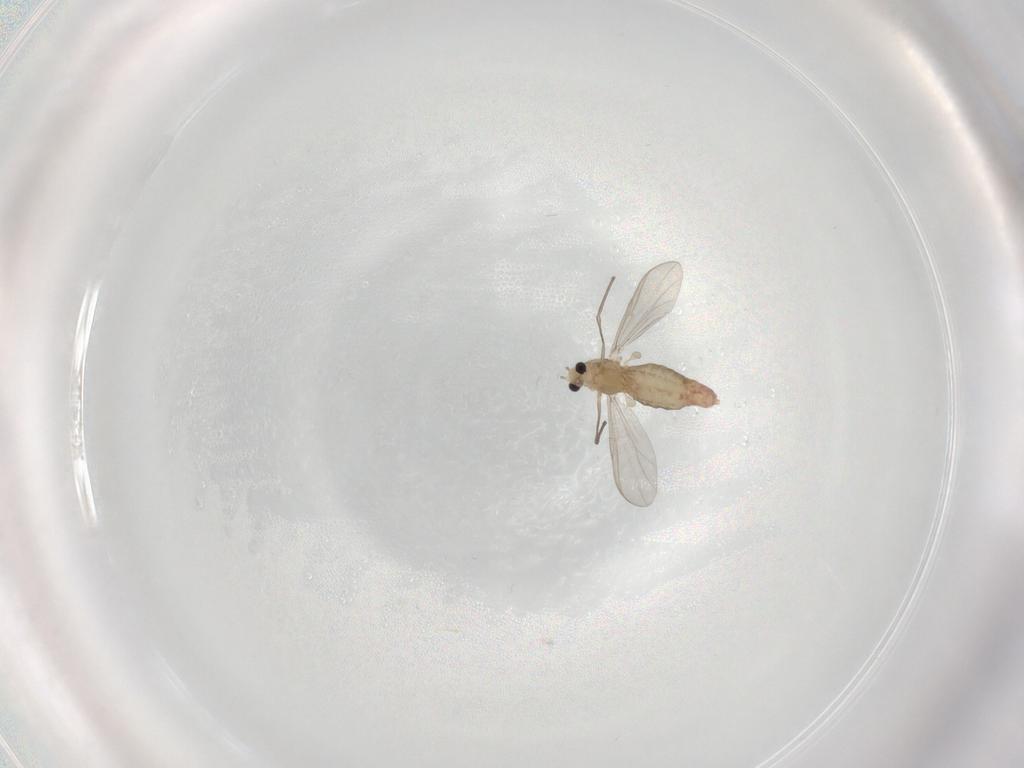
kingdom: Animalia
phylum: Arthropoda
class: Insecta
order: Diptera
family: Chironomidae
